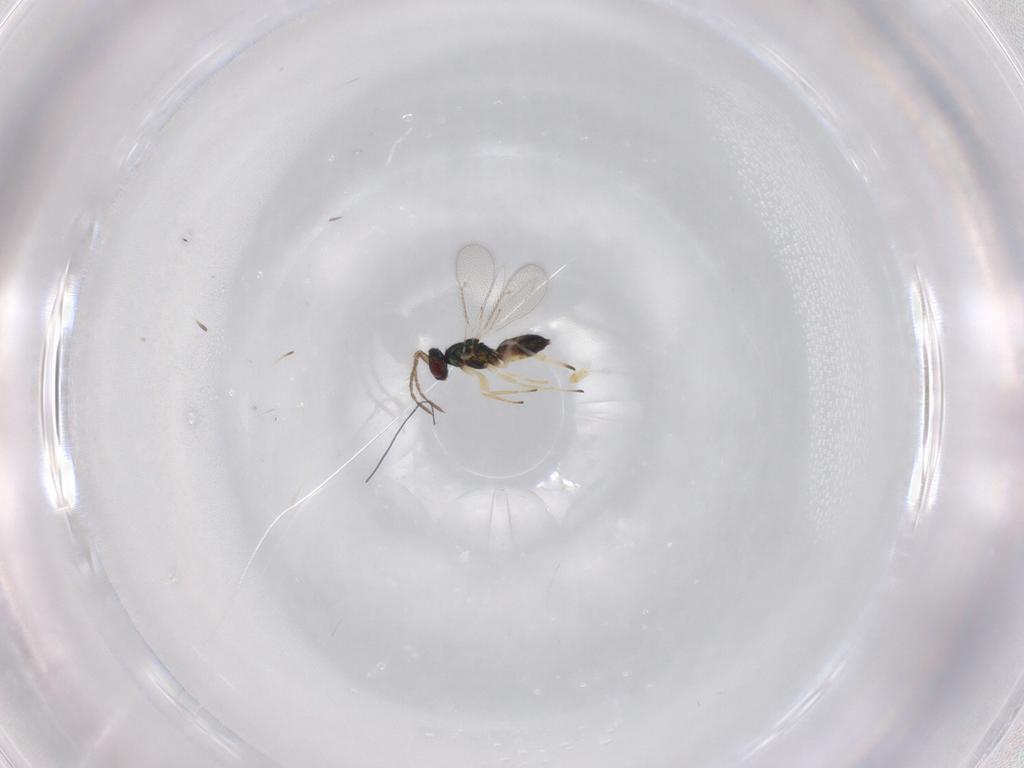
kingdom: Animalia
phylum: Arthropoda
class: Insecta
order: Hymenoptera
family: Eulophidae
